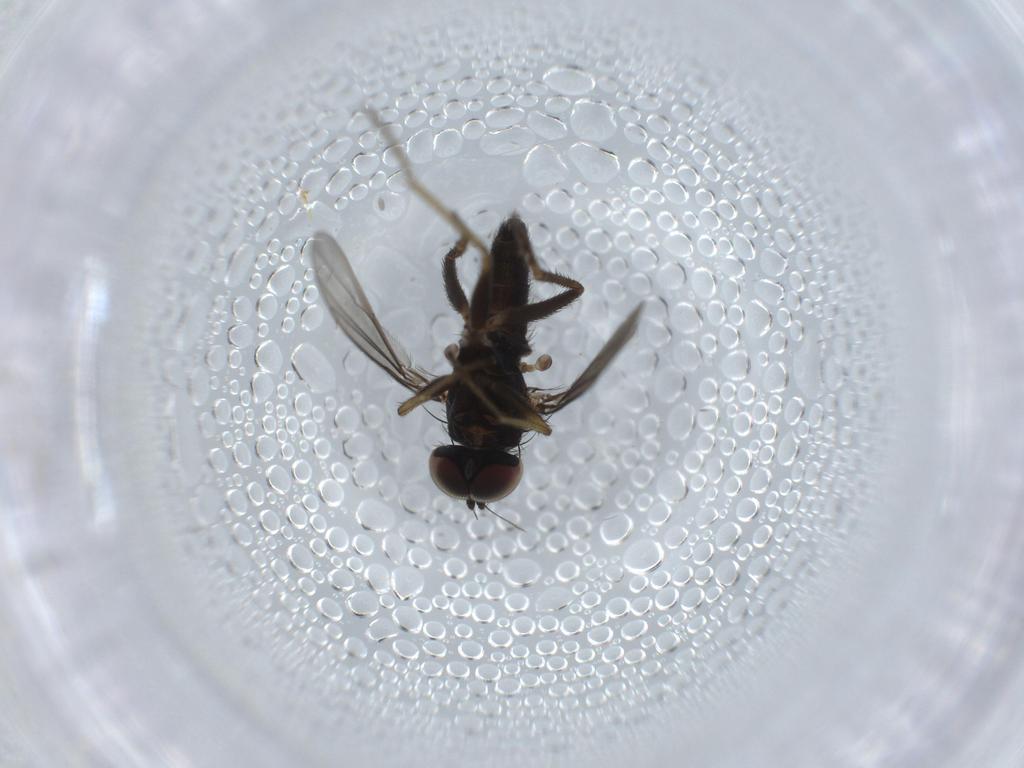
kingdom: Animalia
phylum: Arthropoda
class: Insecta
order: Diptera
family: Dolichopodidae
